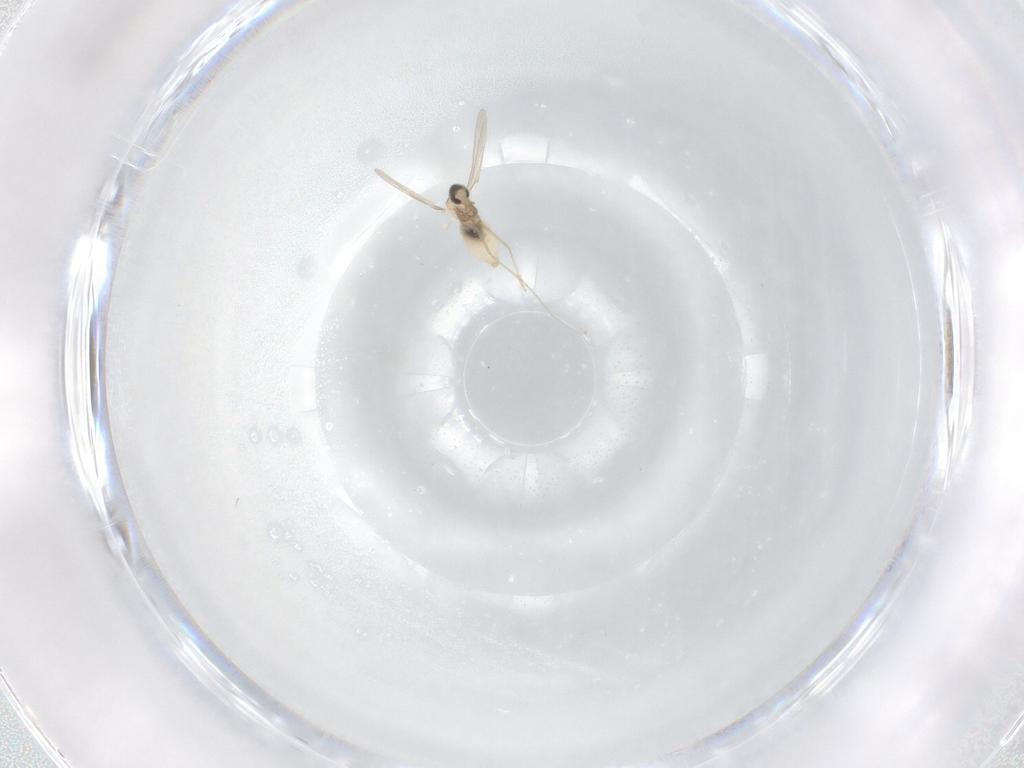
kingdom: Animalia
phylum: Arthropoda
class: Insecta
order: Diptera
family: Cecidomyiidae
